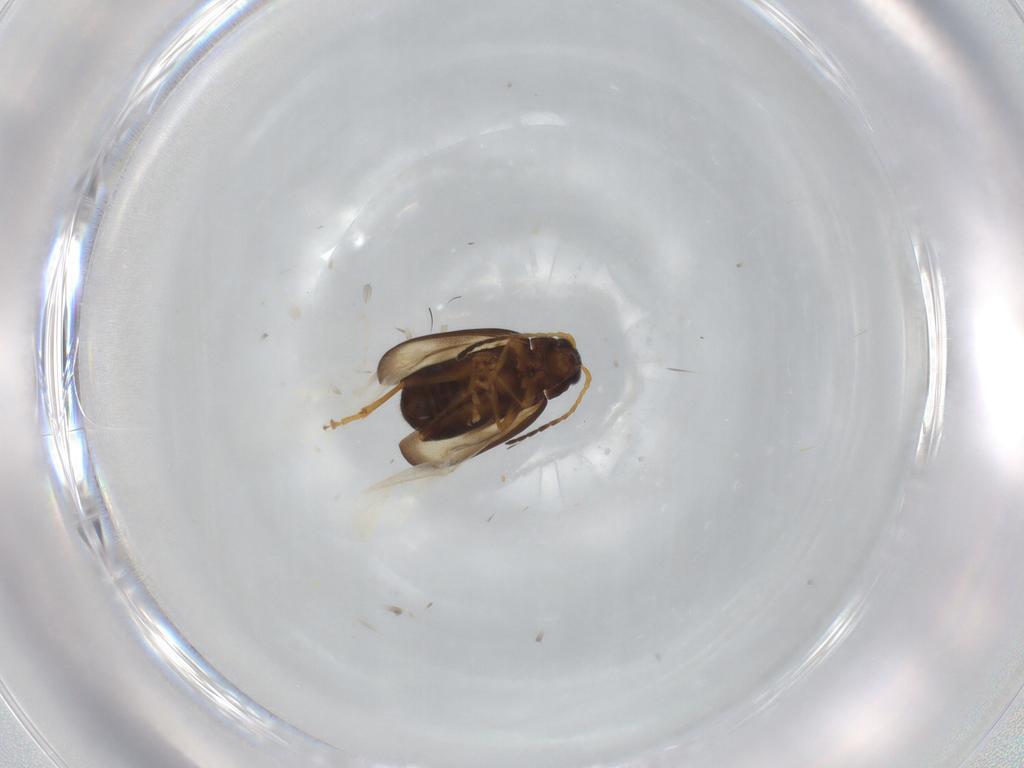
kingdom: Animalia
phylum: Arthropoda
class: Insecta
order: Coleoptera
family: Chrysomelidae
